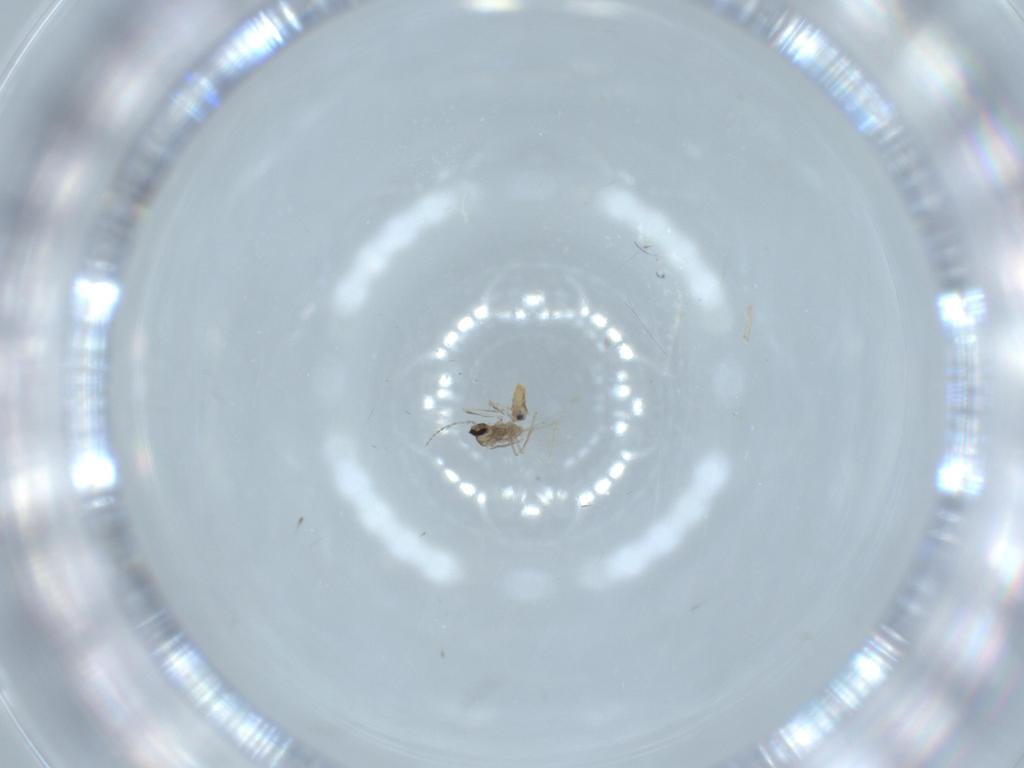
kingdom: Animalia
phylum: Arthropoda
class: Insecta
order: Diptera
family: Cecidomyiidae
